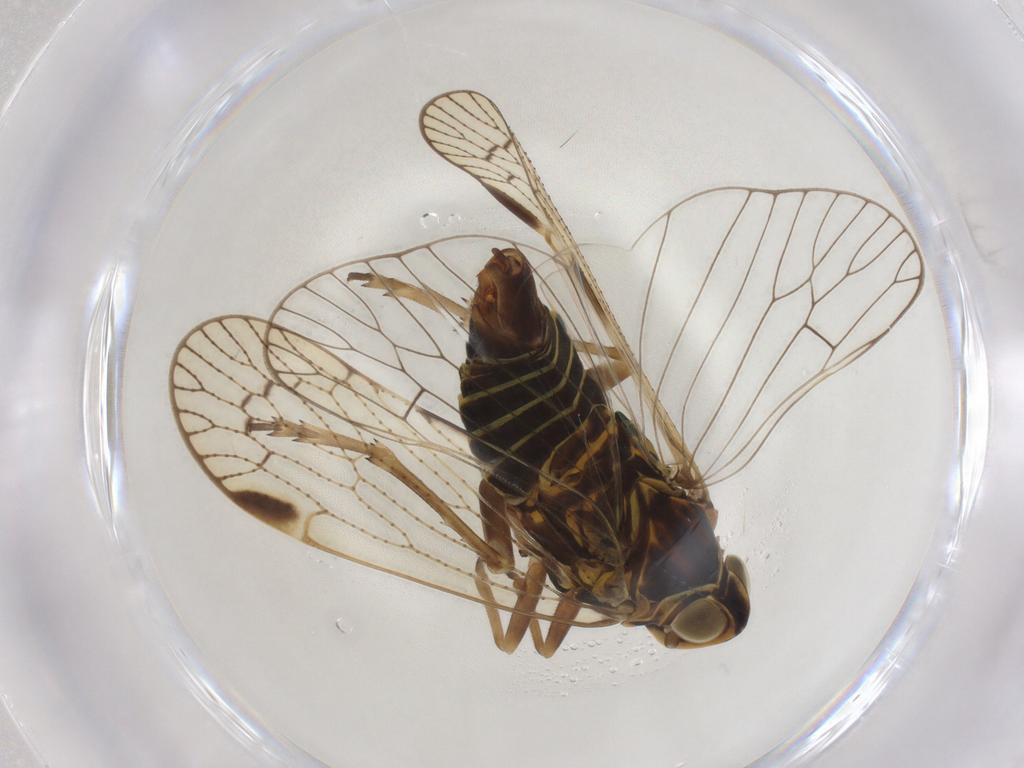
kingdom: Animalia
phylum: Arthropoda
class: Insecta
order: Hemiptera
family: Cixiidae
